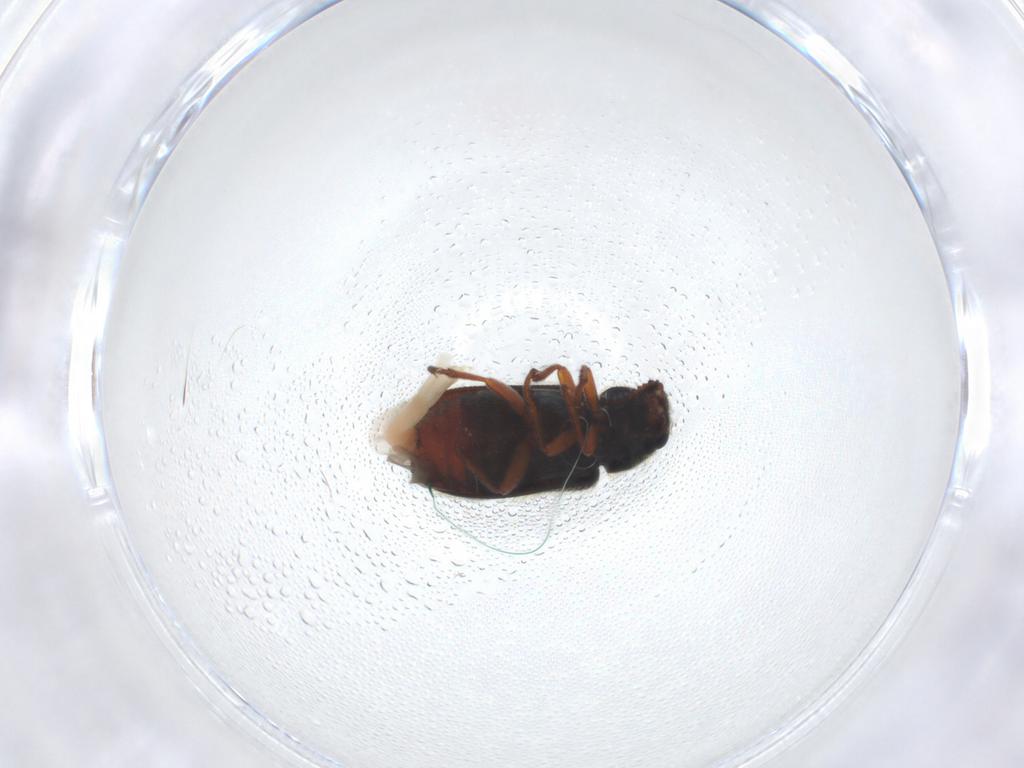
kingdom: Animalia
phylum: Arthropoda
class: Insecta
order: Coleoptera
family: Melyridae
